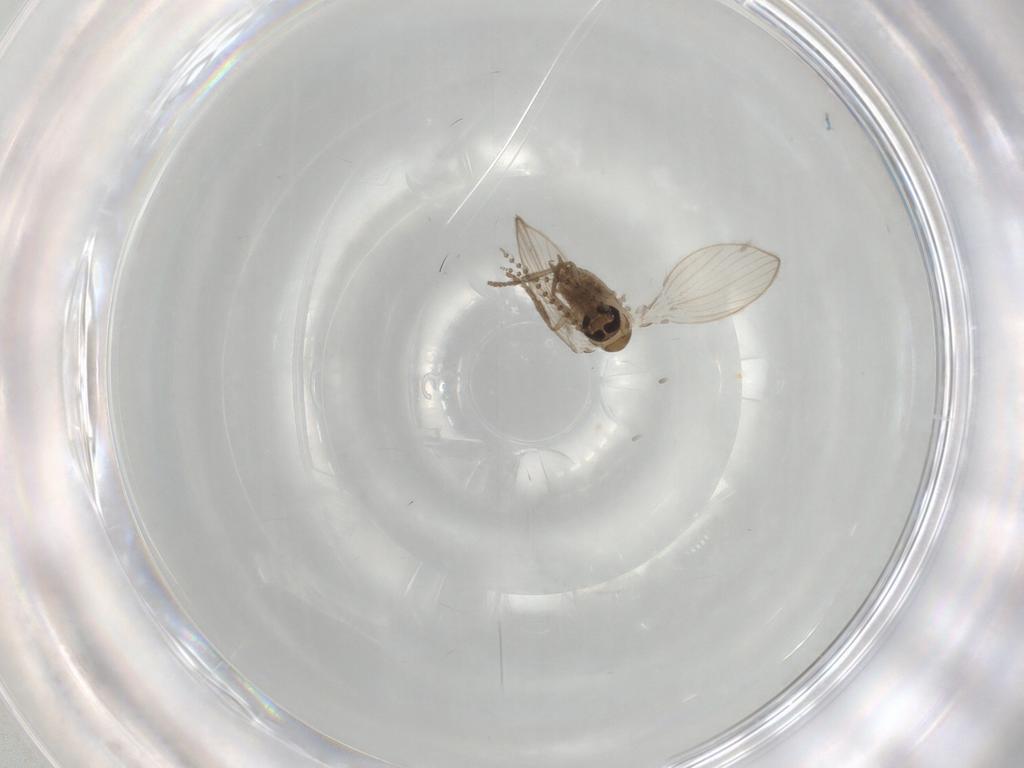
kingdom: Animalia
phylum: Arthropoda
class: Insecta
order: Diptera
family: Psychodidae
